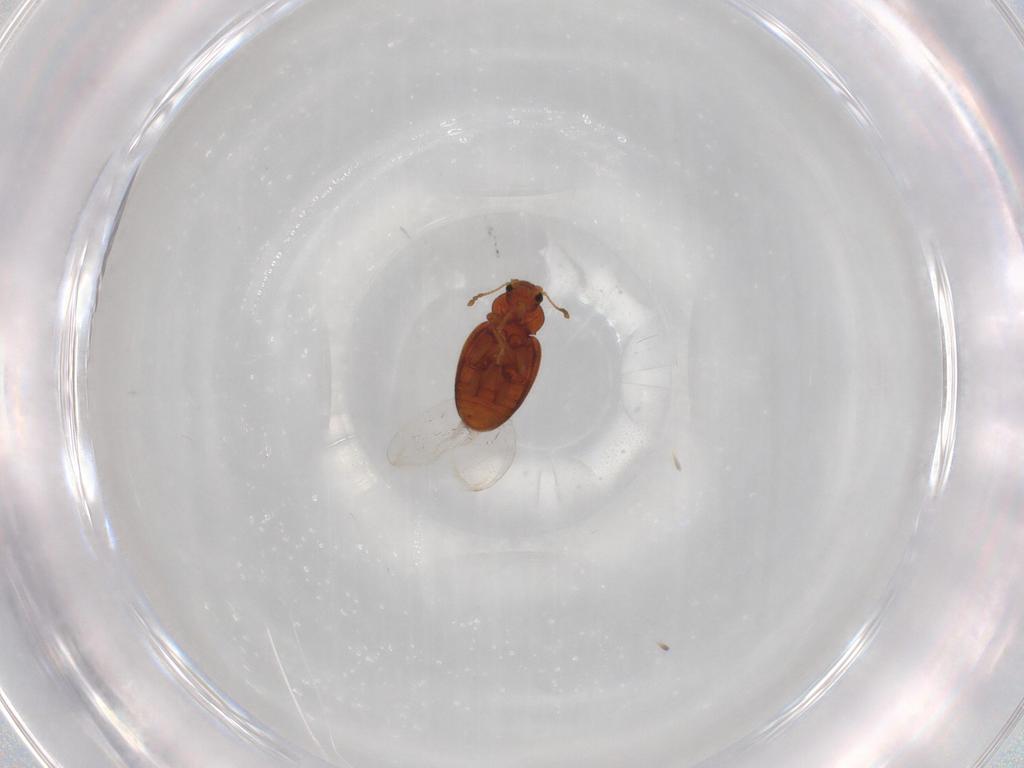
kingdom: Animalia
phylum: Arthropoda
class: Insecta
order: Coleoptera
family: Latridiidae
